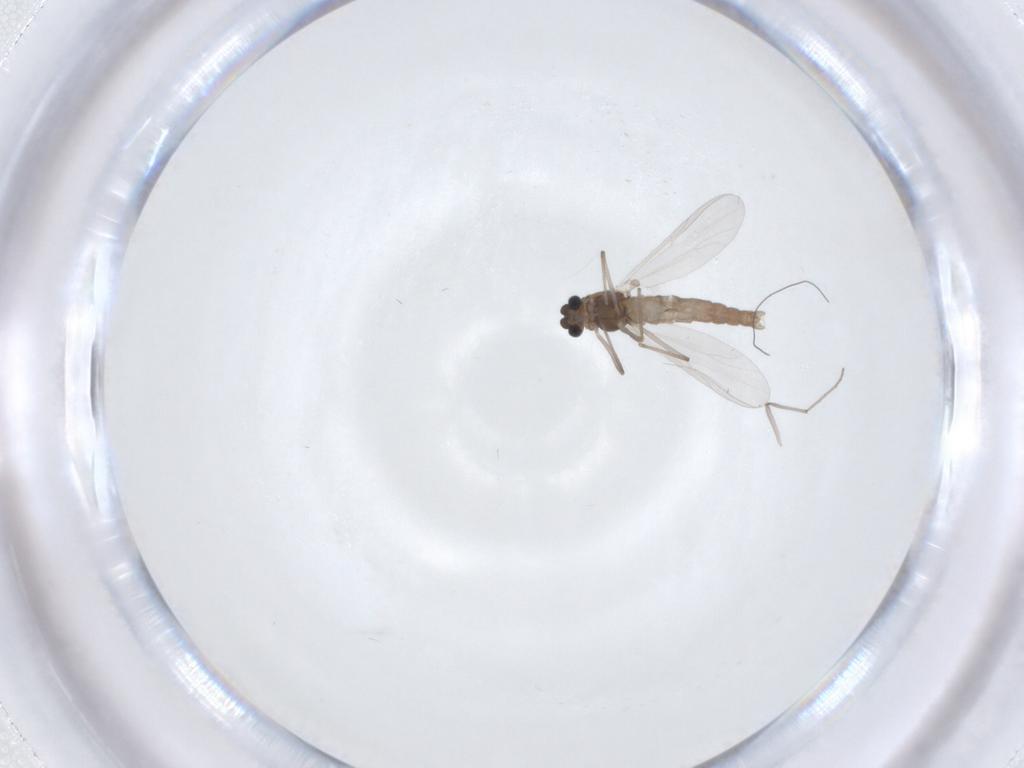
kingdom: Animalia
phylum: Arthropoda
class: Insecta
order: Diptera
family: Chironomidae
